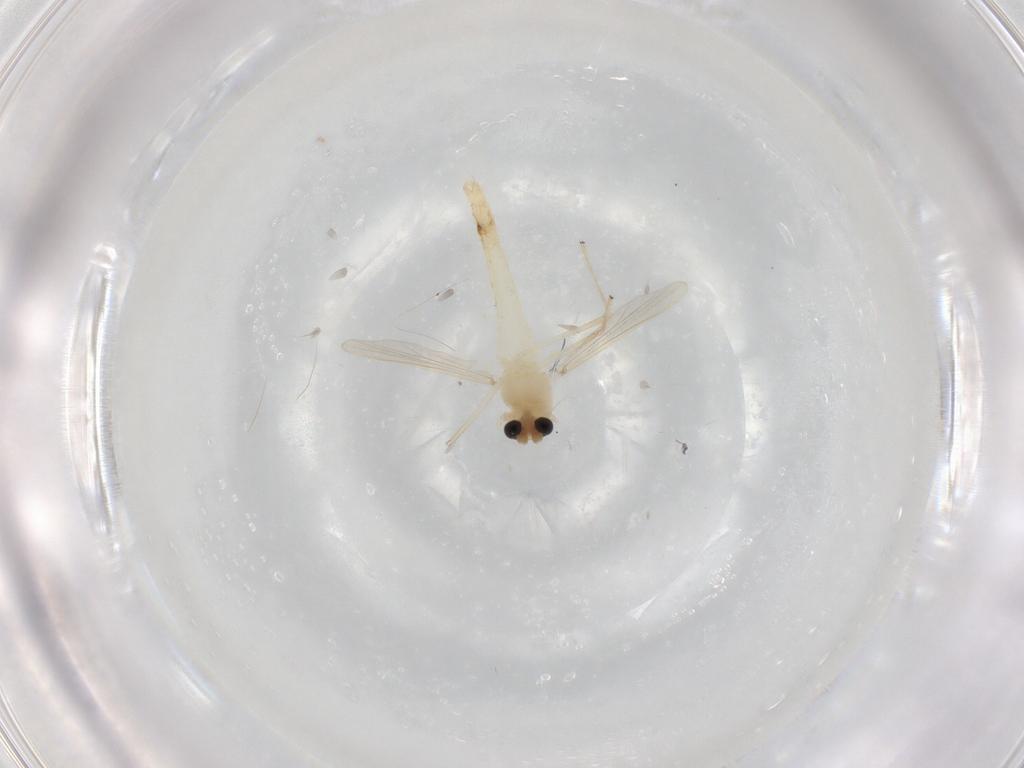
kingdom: Animalia
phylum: Arthropoda
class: Insecta
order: Diptera
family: Chironomidae
